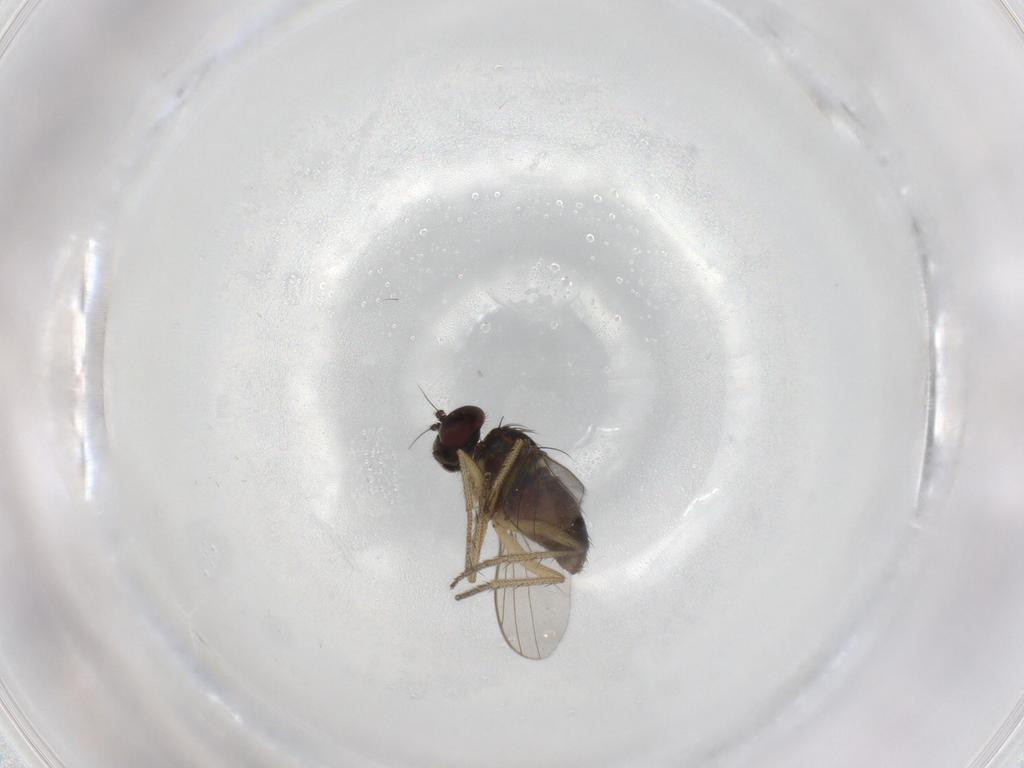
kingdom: Animalia
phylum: Arthropoda
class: Insecta
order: Diptera
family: Dolichopodidae
